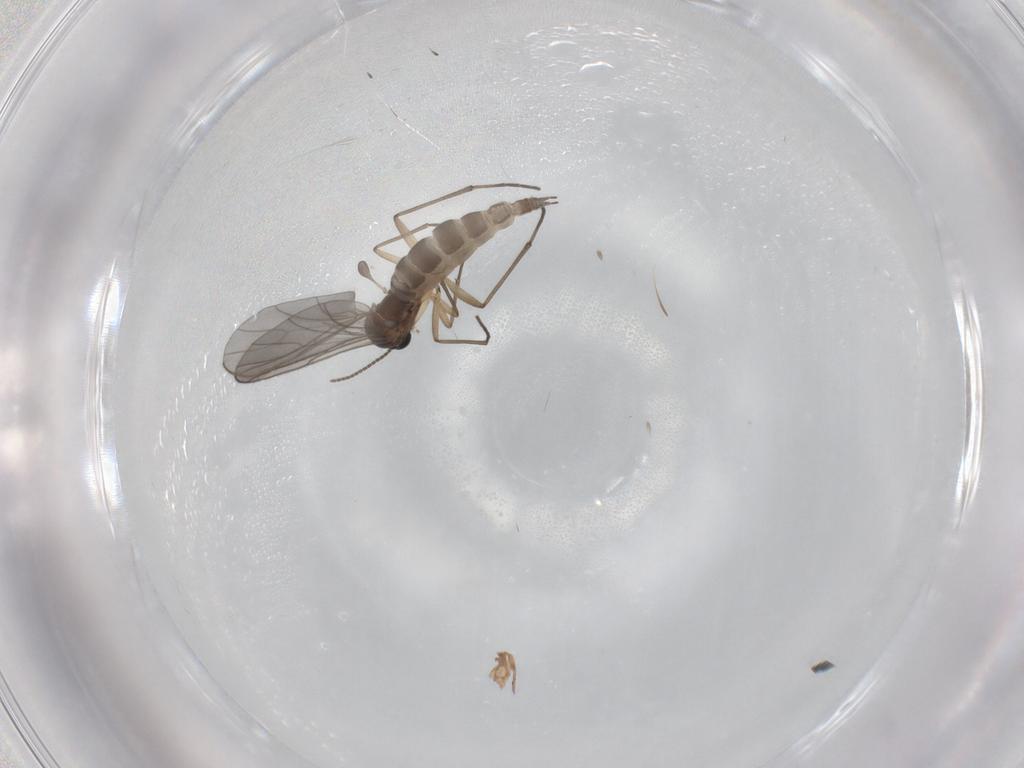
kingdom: Animalia
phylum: Arthropoda
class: Insecta
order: Diptera
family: Sciaridae
